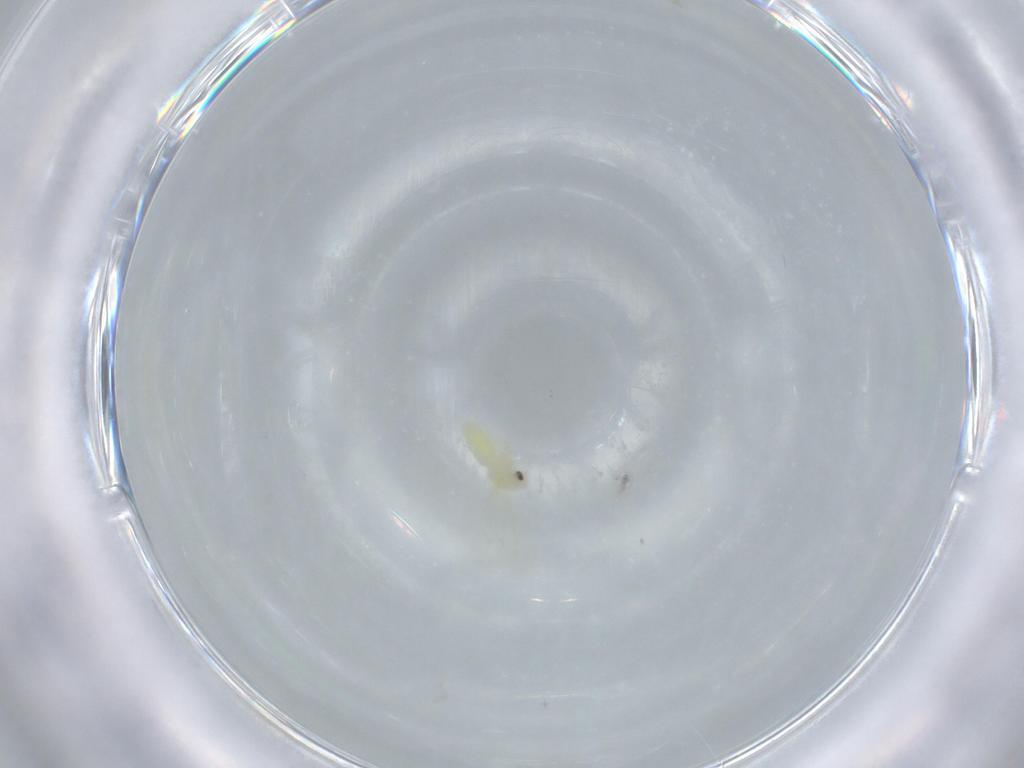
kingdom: Animalia
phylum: Arthropoda
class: Insecta
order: Hemiptera
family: Aleyrodidae
